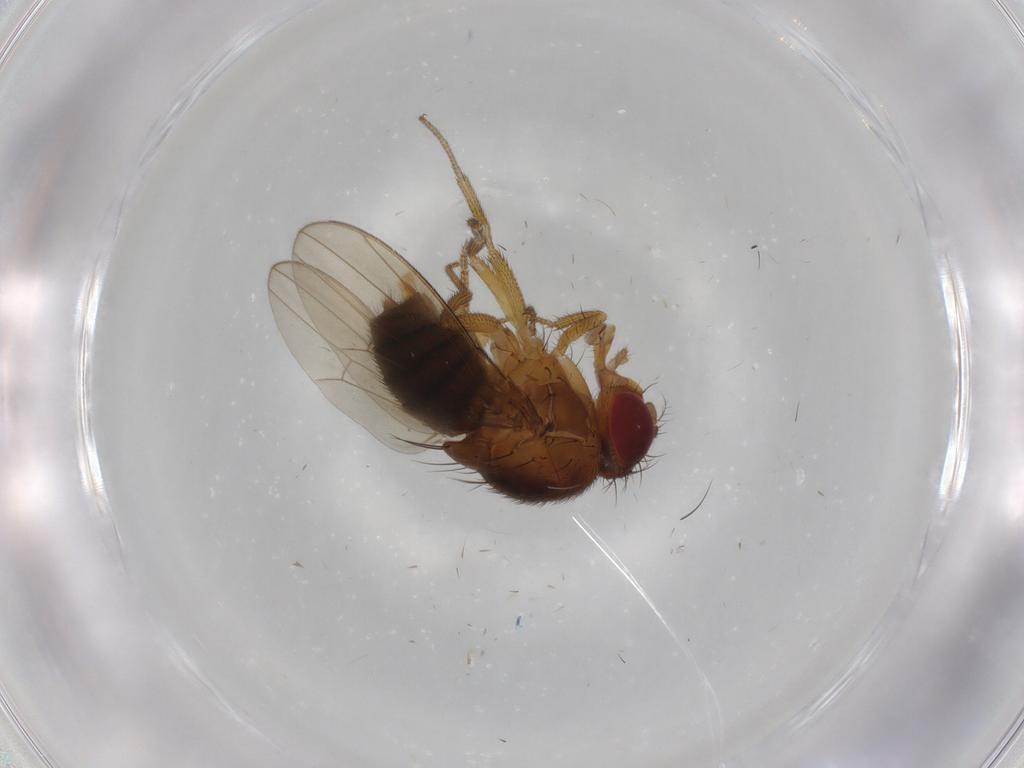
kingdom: Animalia
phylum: Arthropoda
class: Insecta
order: Diptera
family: Drosophilidae
